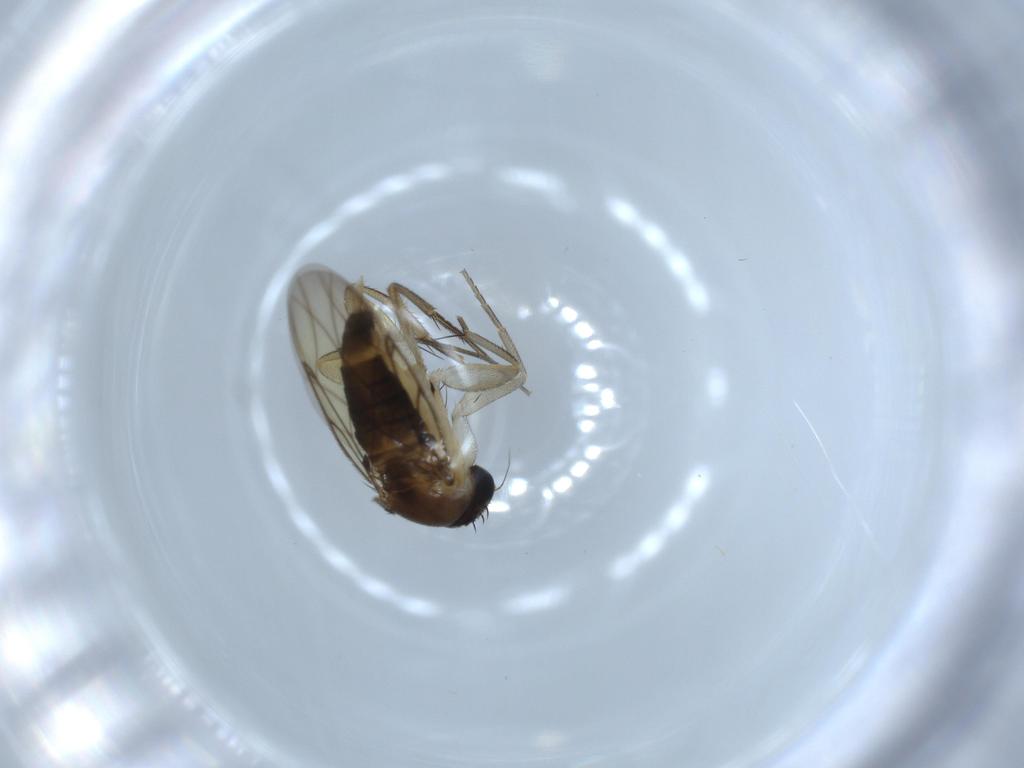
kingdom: Animalia
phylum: Arthropoda
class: Insecta
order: Diptera
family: Phoridae
